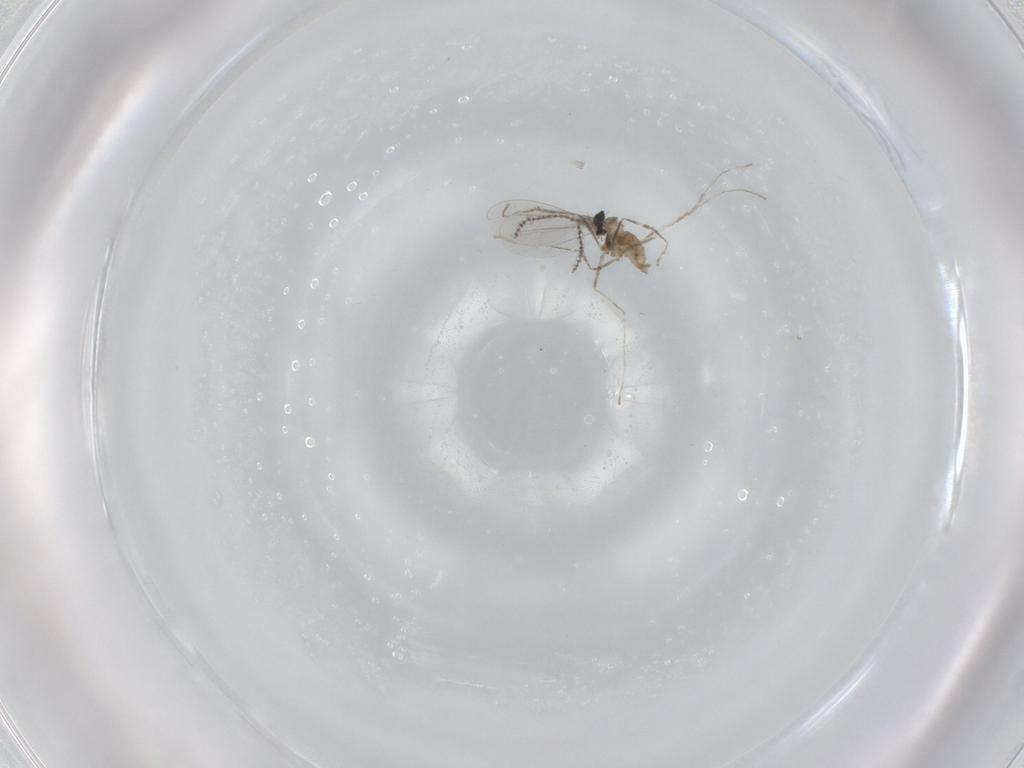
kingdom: Animalia
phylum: Arthropoda
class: Insecta
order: Diptera
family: Cecidomyiidae
